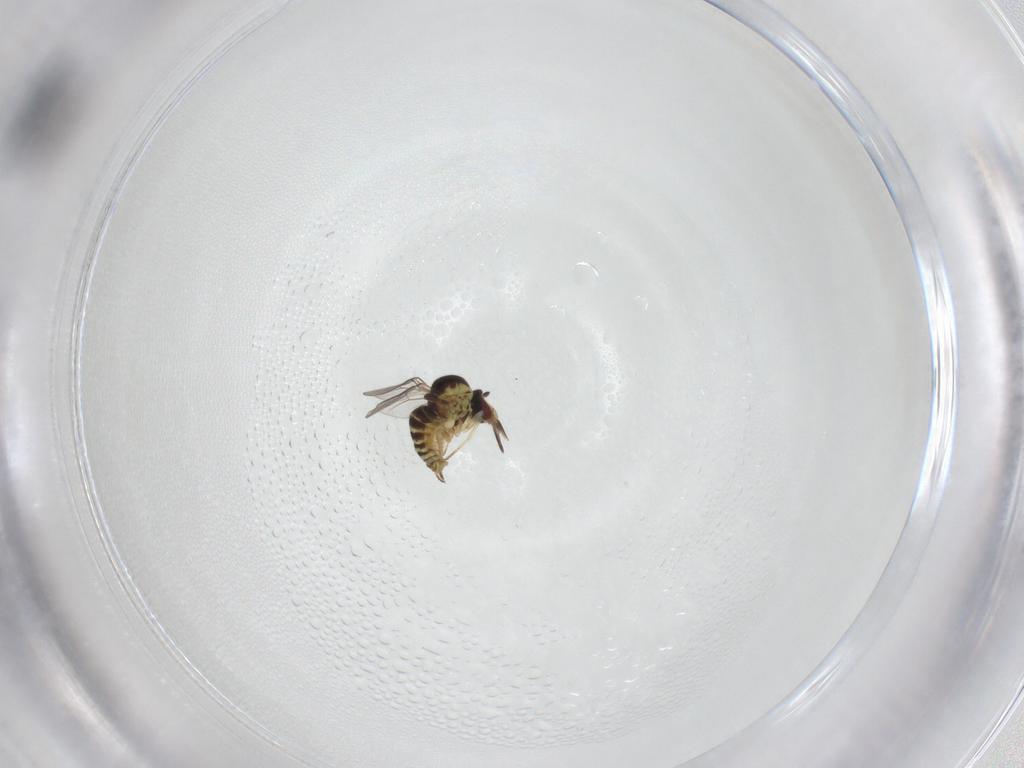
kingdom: Animalia
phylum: Arthropoda
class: Insecta
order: Diptera
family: Mythicomyiidae
